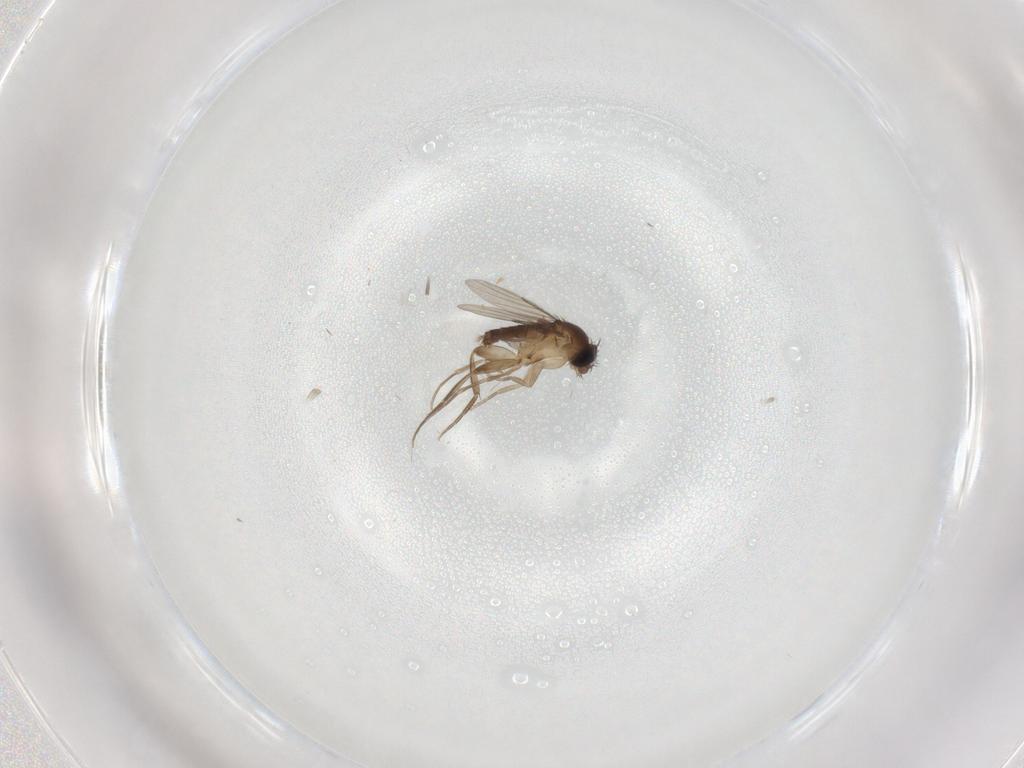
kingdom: Animalia
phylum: Arthropoda
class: Insecta
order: Diptera
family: Phoridae
